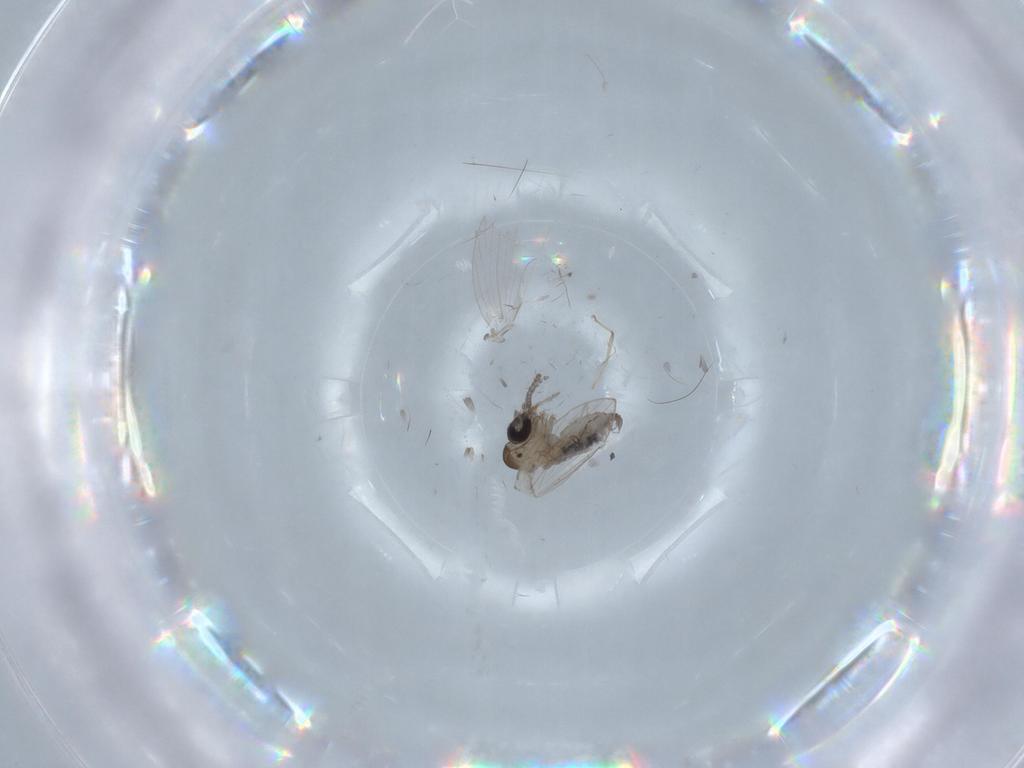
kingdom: Animalia
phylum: Arthropoda
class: Insecta
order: Diptera
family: Psychodidae
